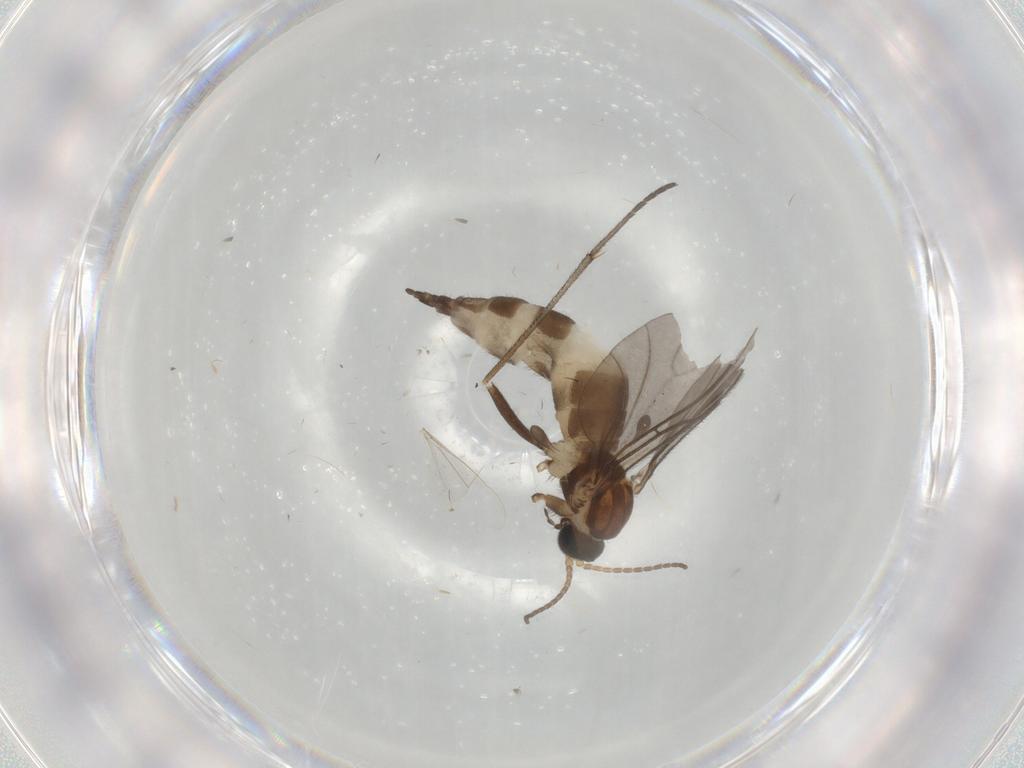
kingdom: Animalia
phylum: Arthropoda
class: Insecta
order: Diptera
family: Sciaridae
